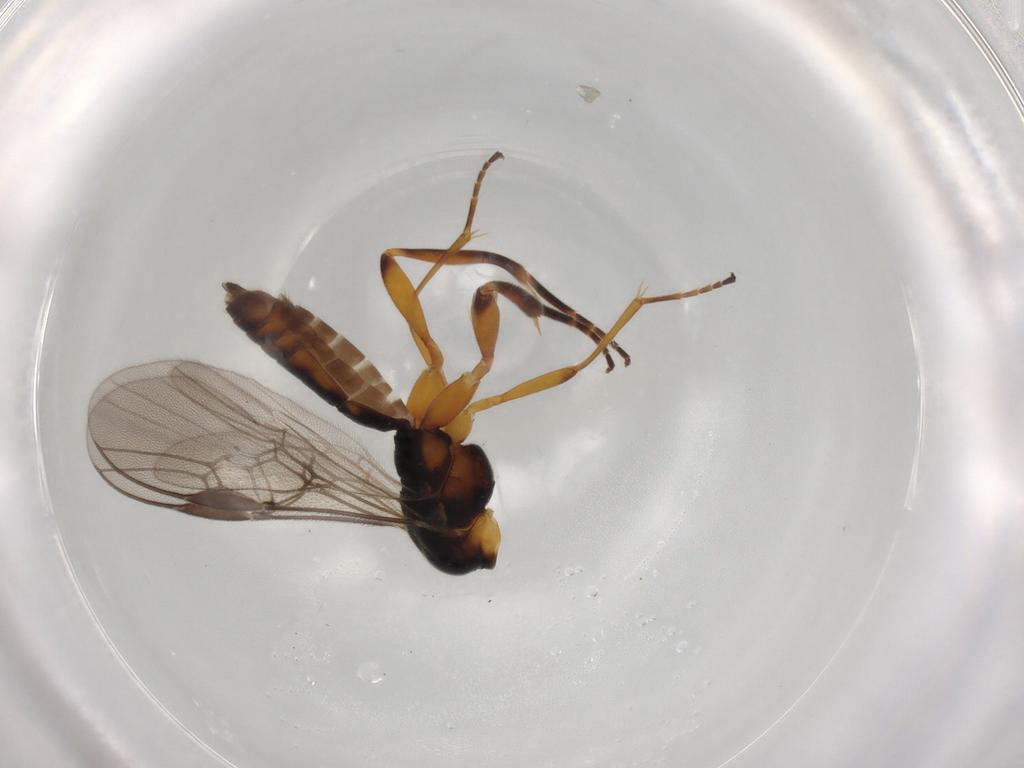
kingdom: Animalia
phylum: Arthropoda
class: Insecta
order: Hymenoptera
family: Braconidae
